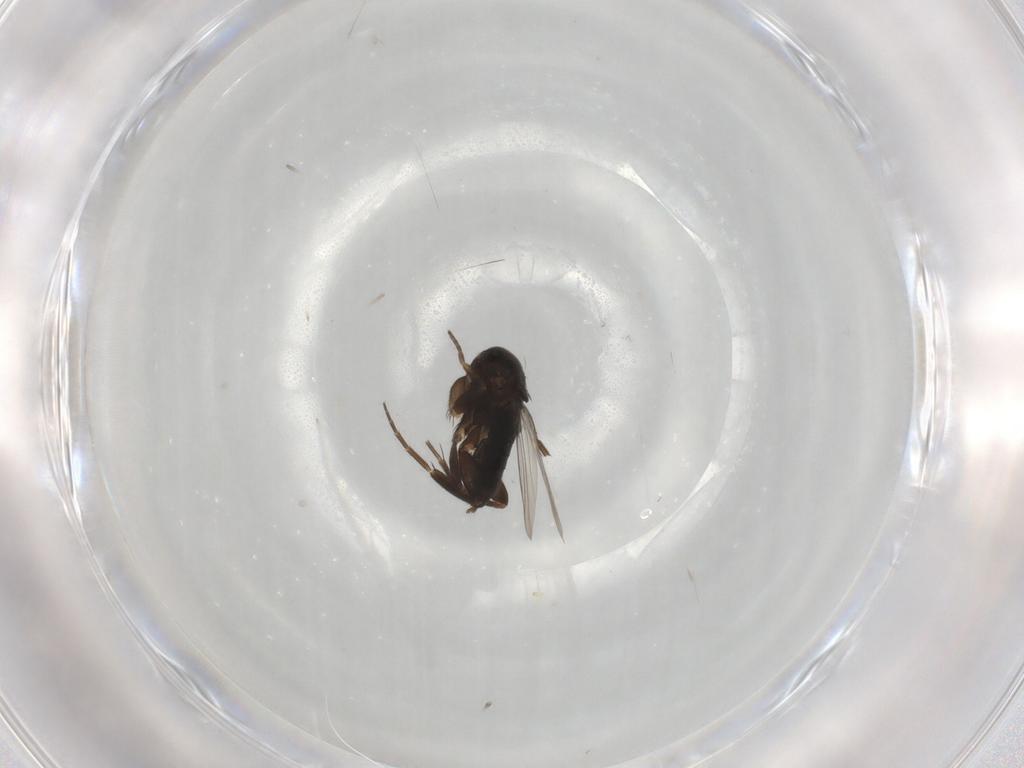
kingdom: Animalia
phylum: Arthropoda
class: Insecta
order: Diptera
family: Phoridae
